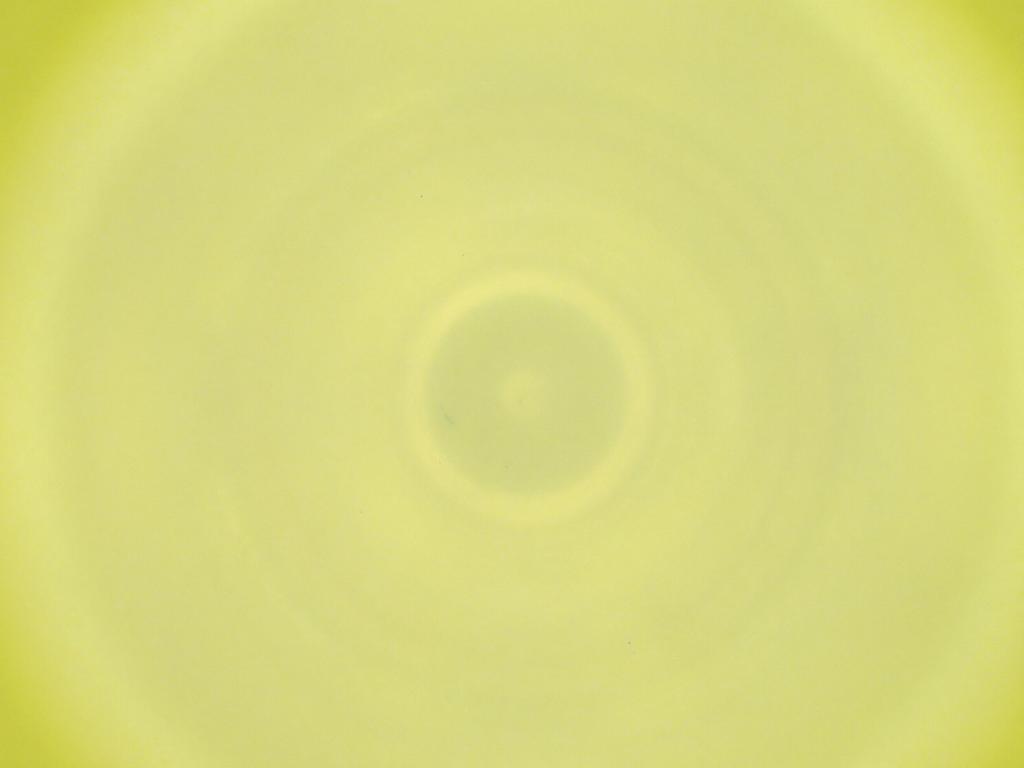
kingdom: Animalia
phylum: Arthropoda
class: Insecta
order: Diptera
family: Cecidomyiidae
